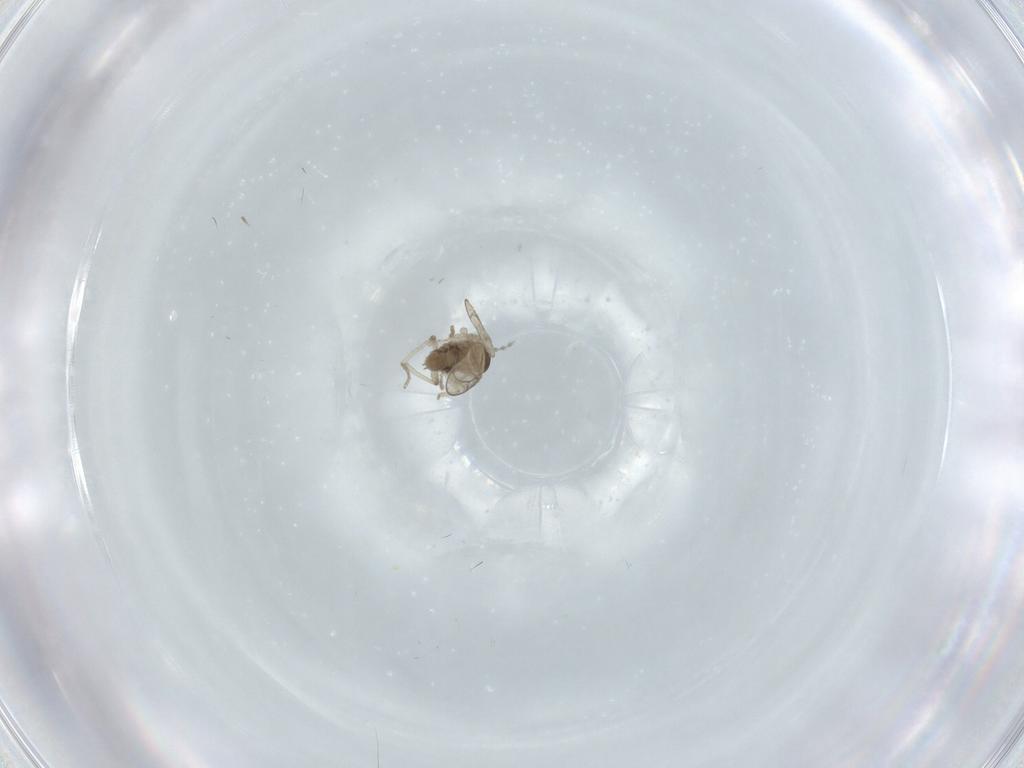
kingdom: Animalia
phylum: Arthropoda
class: Insecta
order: Diptera
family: Cecidomyiidae
